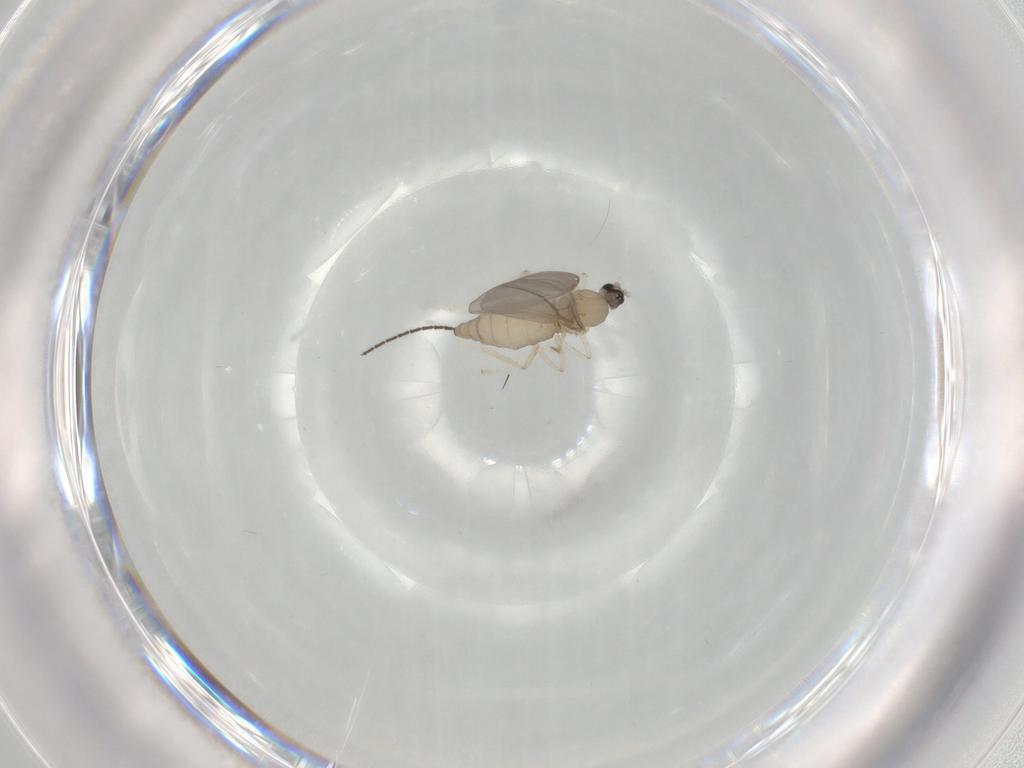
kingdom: Animalia
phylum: Arthropoda
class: Insecta
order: Diptera
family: Cecidomyiidae
